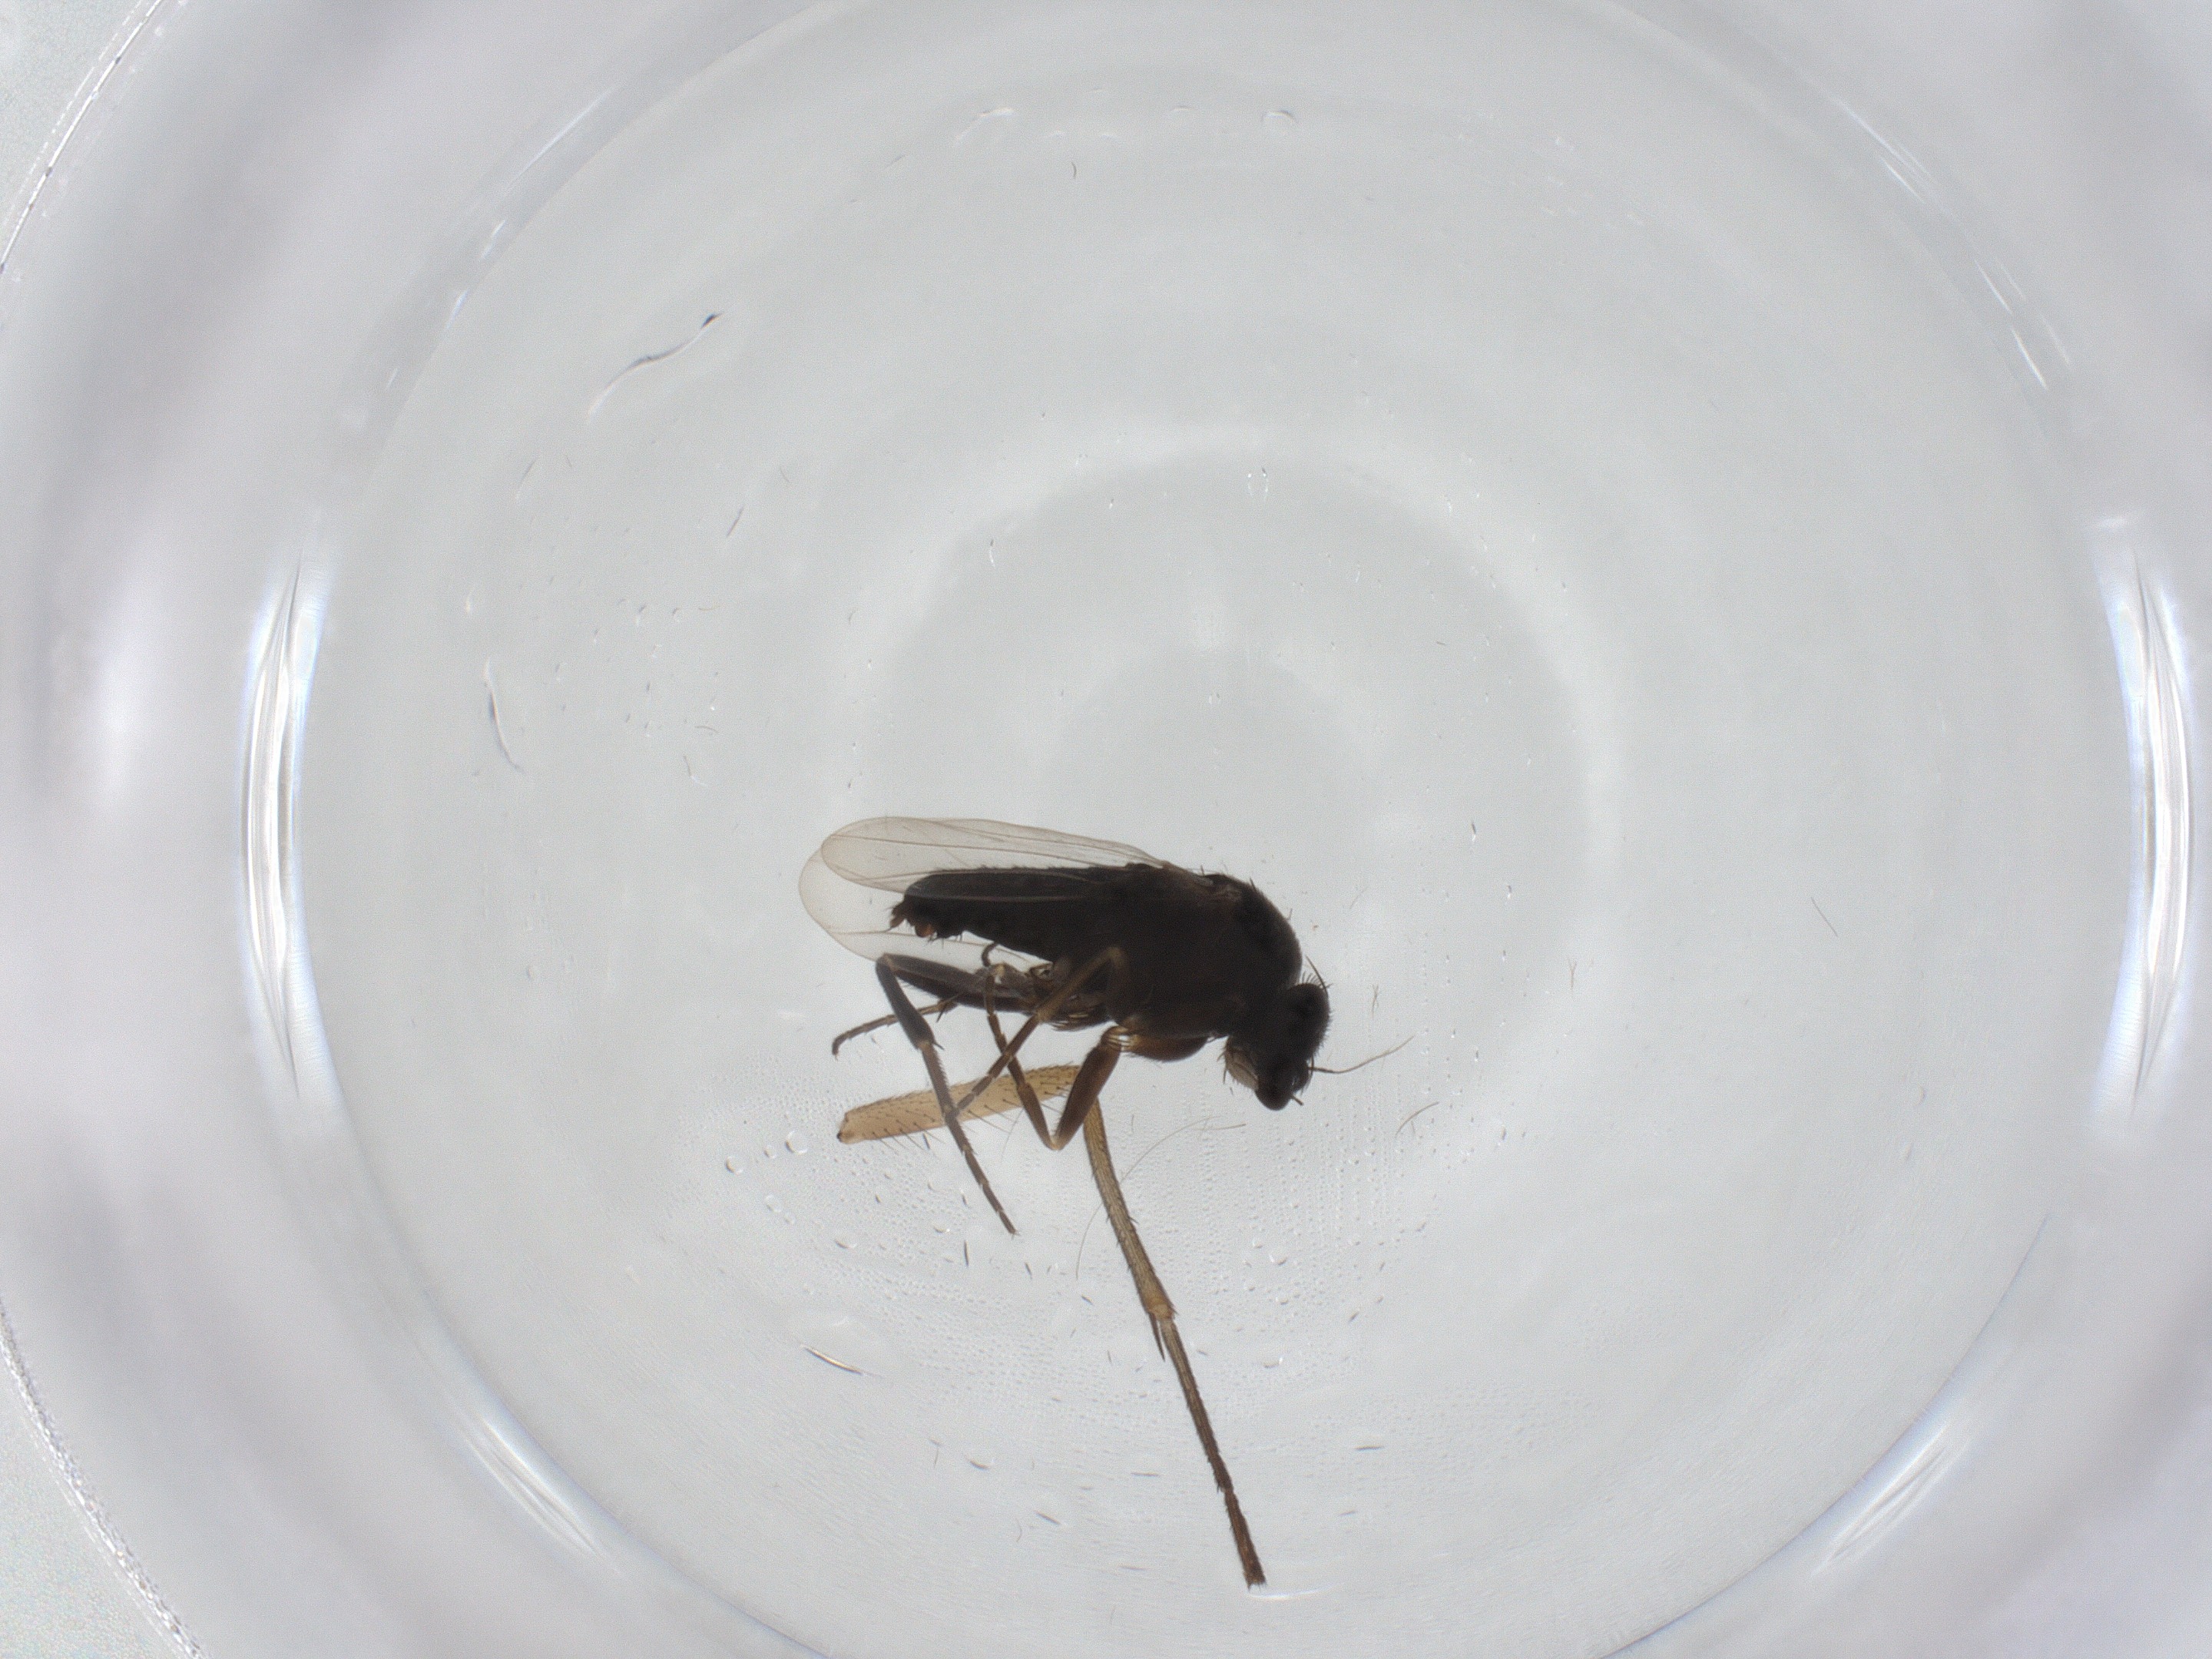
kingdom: Animalia
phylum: Arthropoda
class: Insecta
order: Diptera
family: Phoridae
